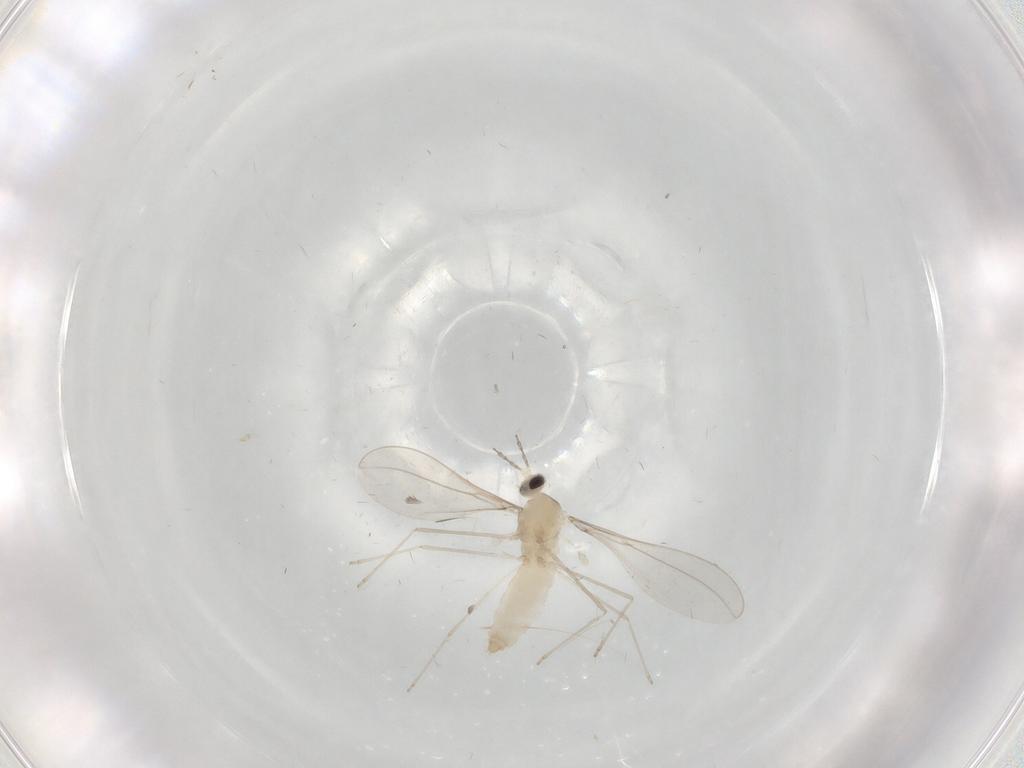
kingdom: Animalia
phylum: Arthropoda
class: Insecta
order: Diptera
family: Cecidomyiidae
